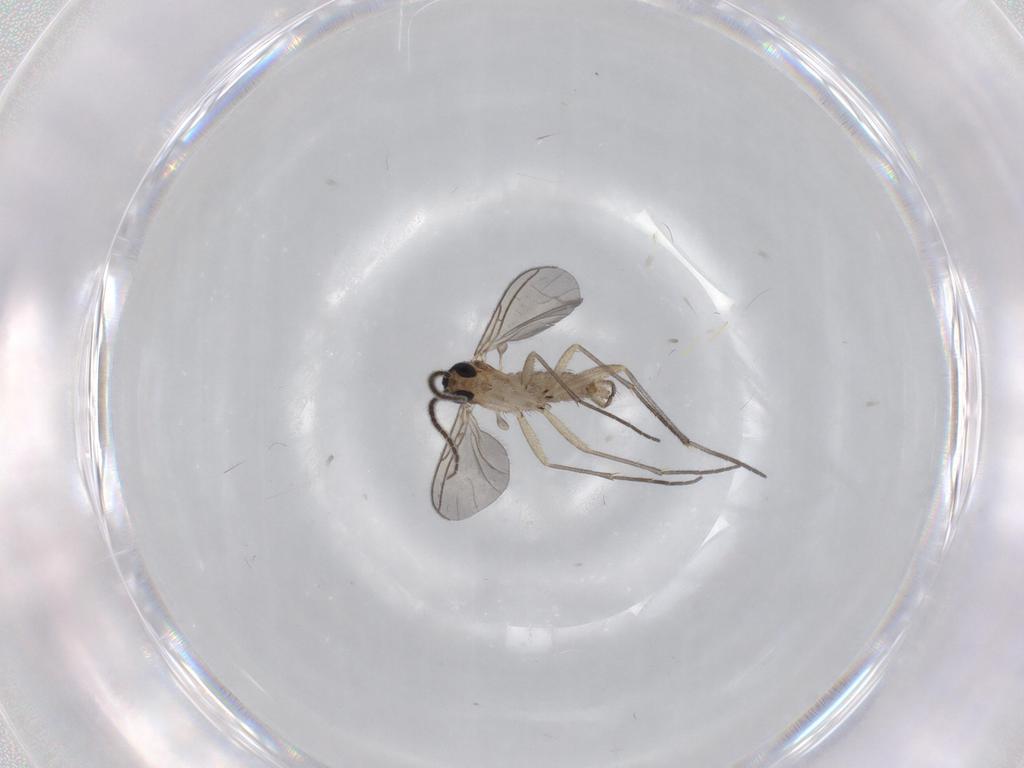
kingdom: Animalia
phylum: Arthropoda
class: Insecta
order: Diptera
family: Sciaridae
